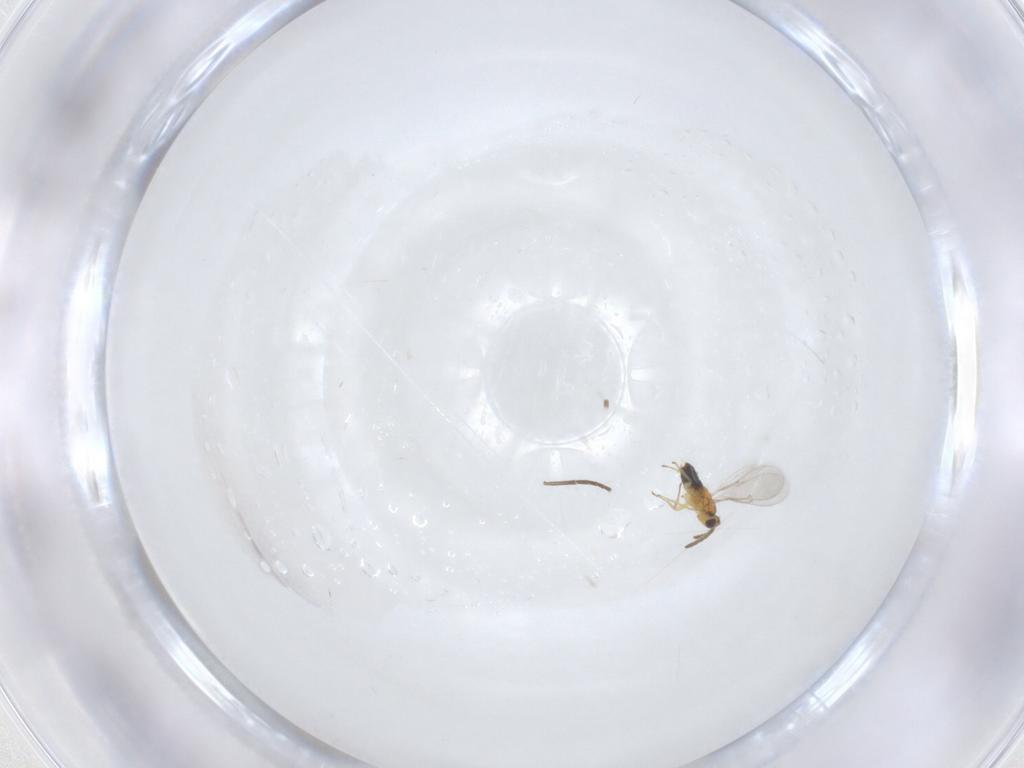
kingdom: Animalia
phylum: Arthropoda
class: Insecta
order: Hymenoptera
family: Aphelinidae
